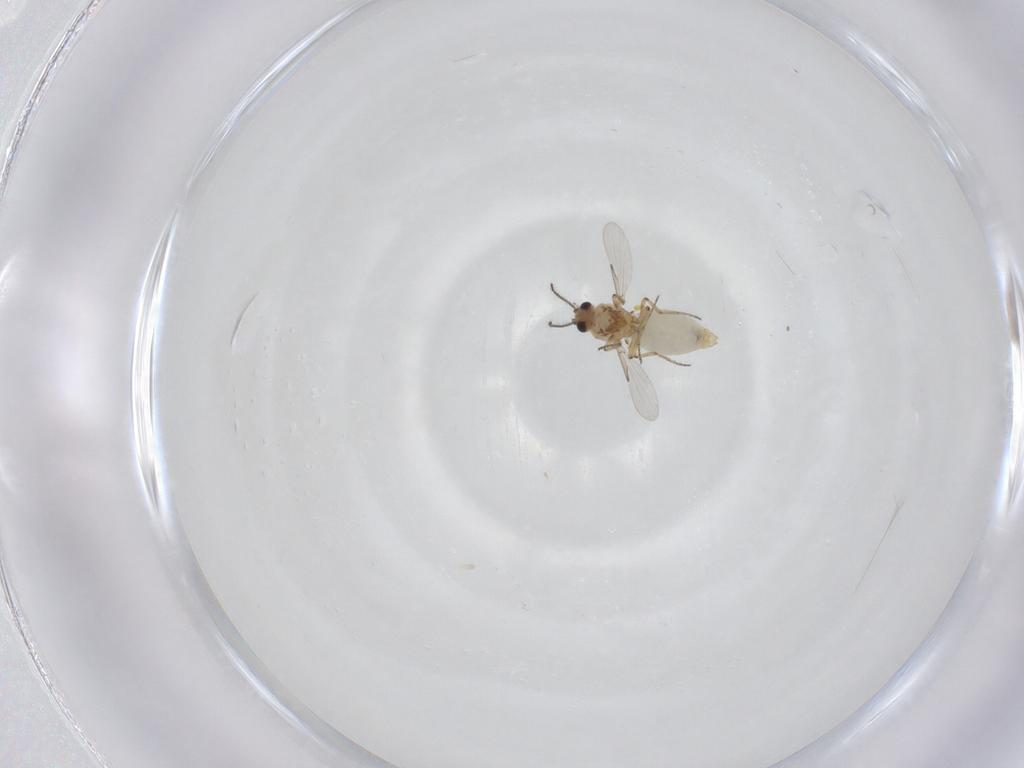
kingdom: Animalia
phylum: Arthropoda
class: Insecta
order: Diptera
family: Ceratopogonidae
